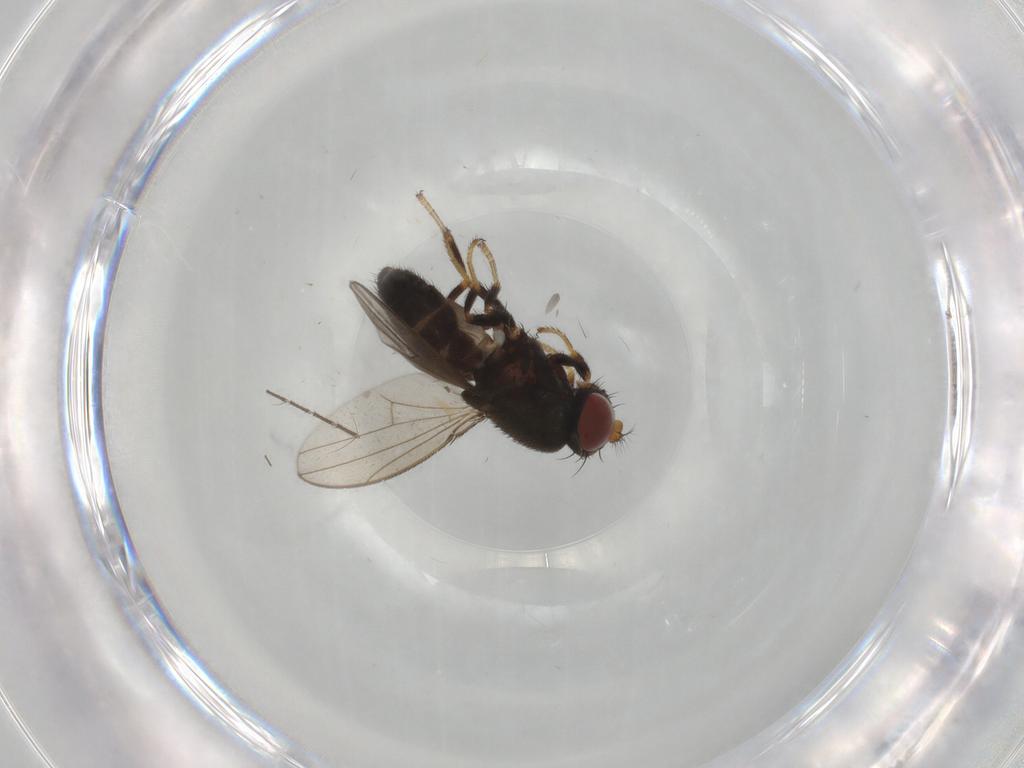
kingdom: Animalia
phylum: Arthropoda
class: Insecta
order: Diptera
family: Culicidae
